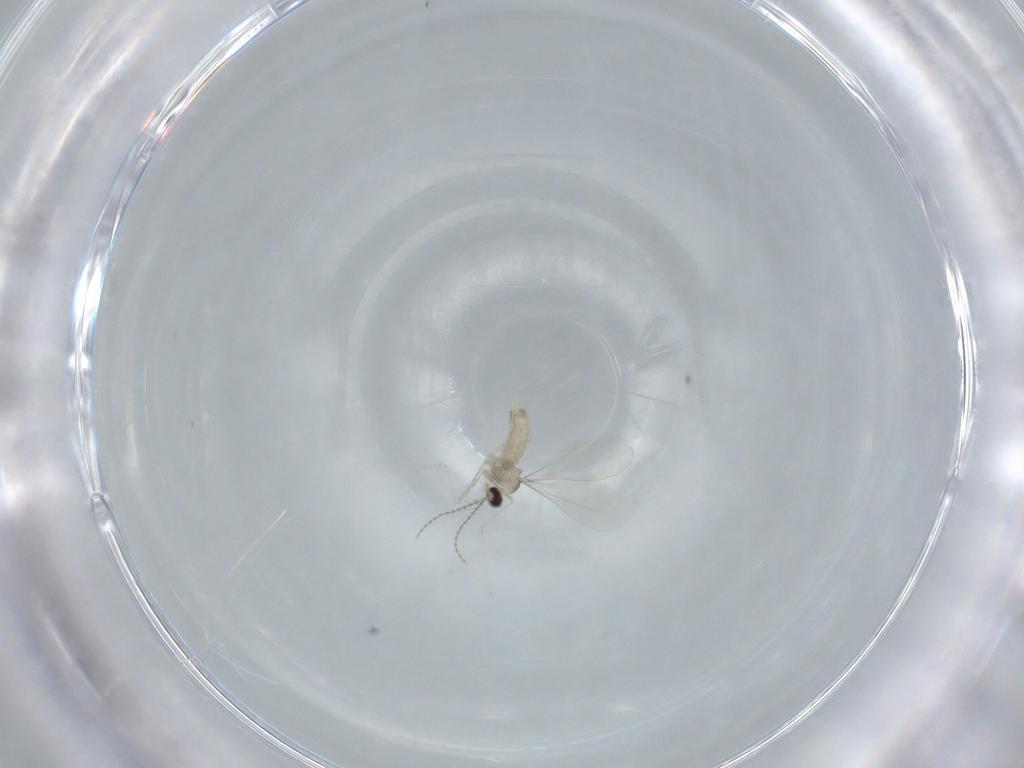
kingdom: Animalia
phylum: Arthropoda
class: Insecta
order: Diptera
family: Cecidomyiidae
